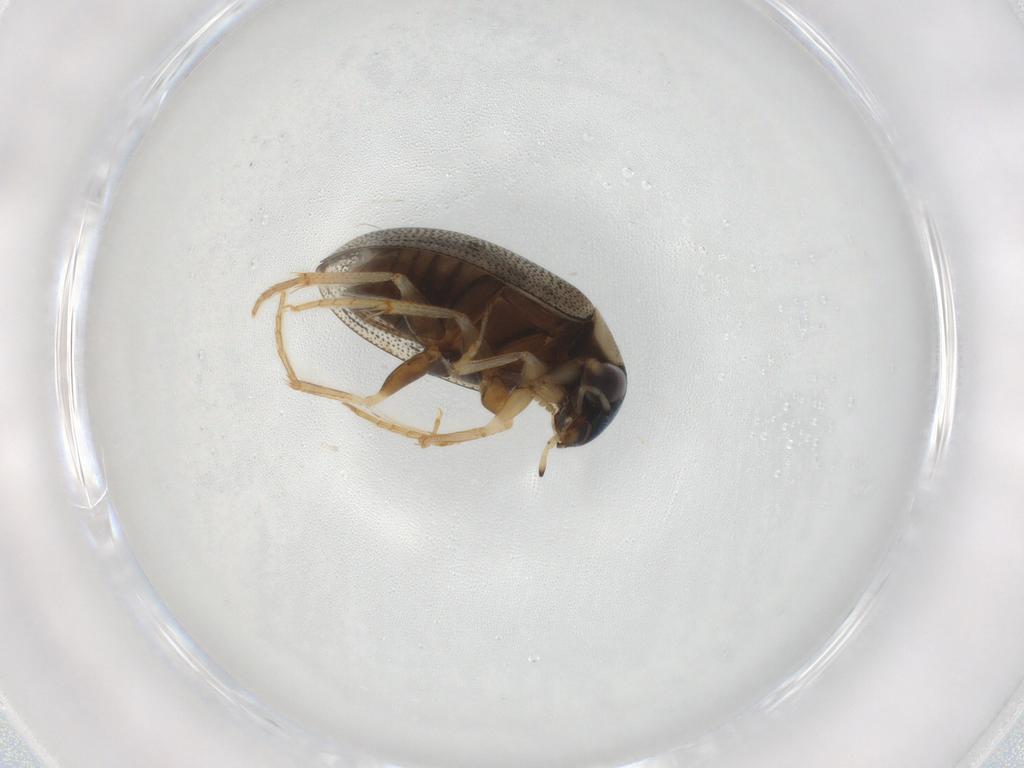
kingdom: Animalia
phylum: Arthropoda
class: Insecta
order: Coleoptera
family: Hydrophilidae
